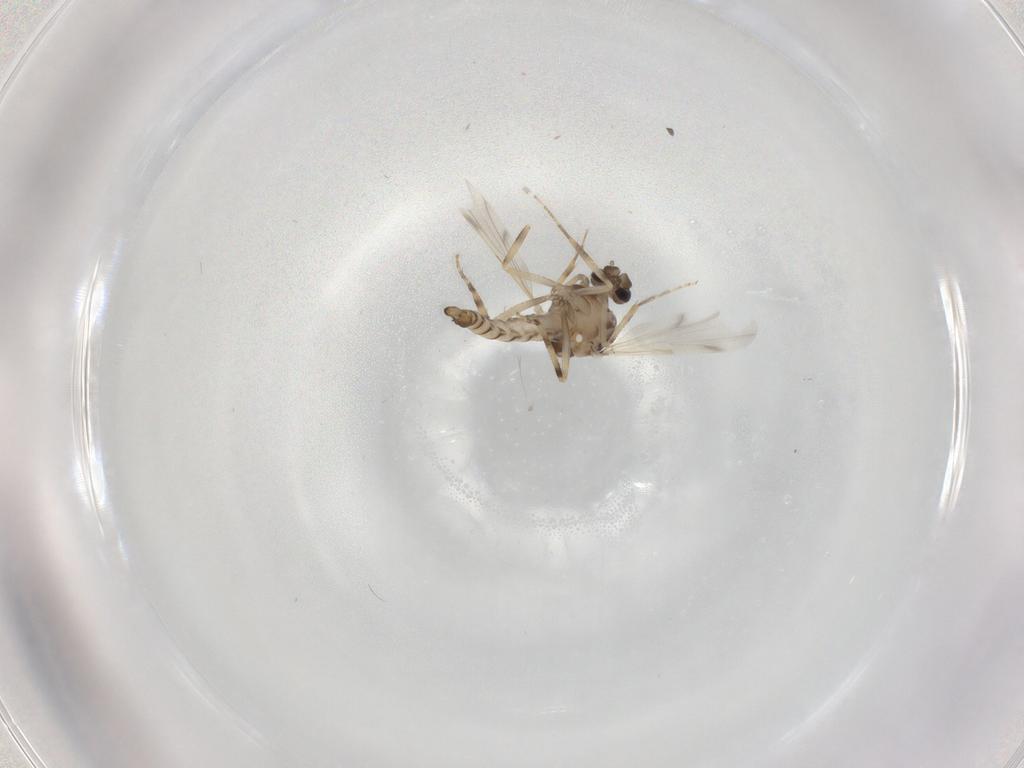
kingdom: Animalia
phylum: Arthropoda
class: Insecta
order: Diptera
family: Ceratopogonidae
